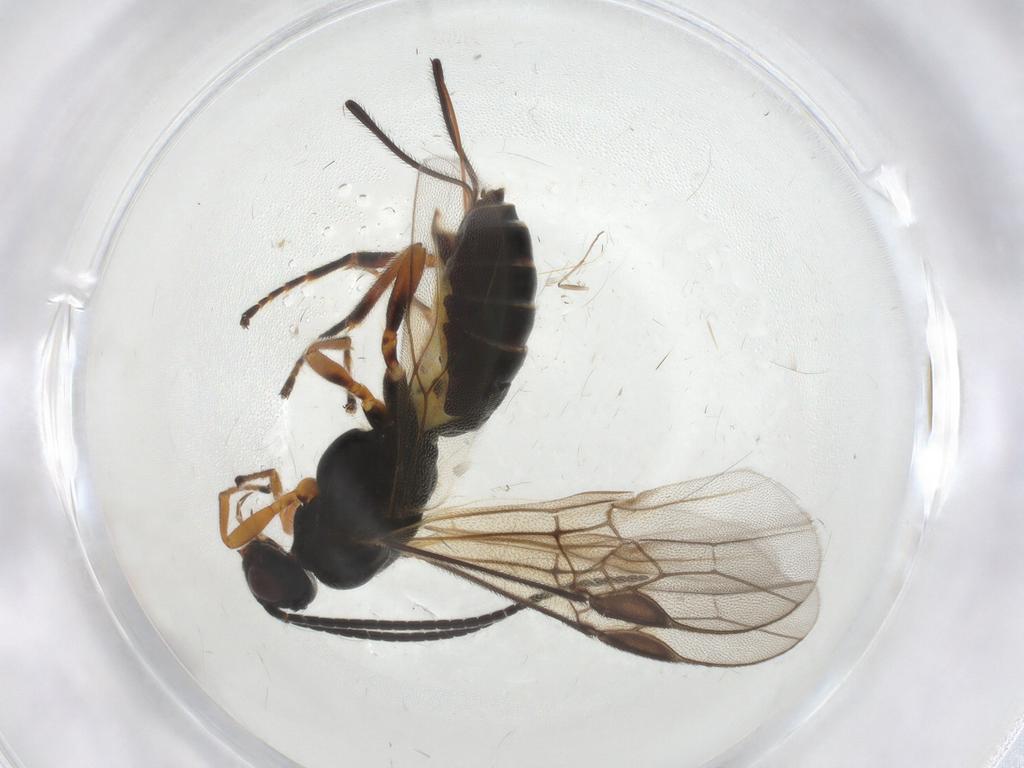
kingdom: Animalia
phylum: Arthropoda
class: Insecta
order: Hymenoptera
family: Braconidae
